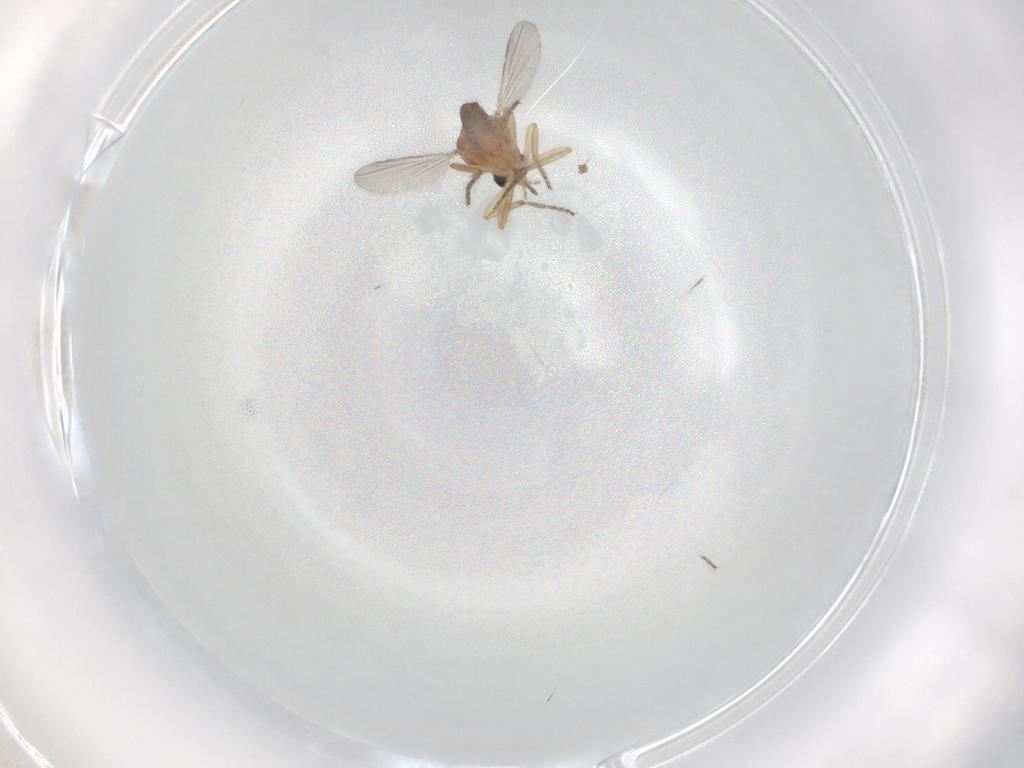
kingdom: Animalia
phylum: Arthropoda
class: Insecta
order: Diptera
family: Ceratopogonidae
